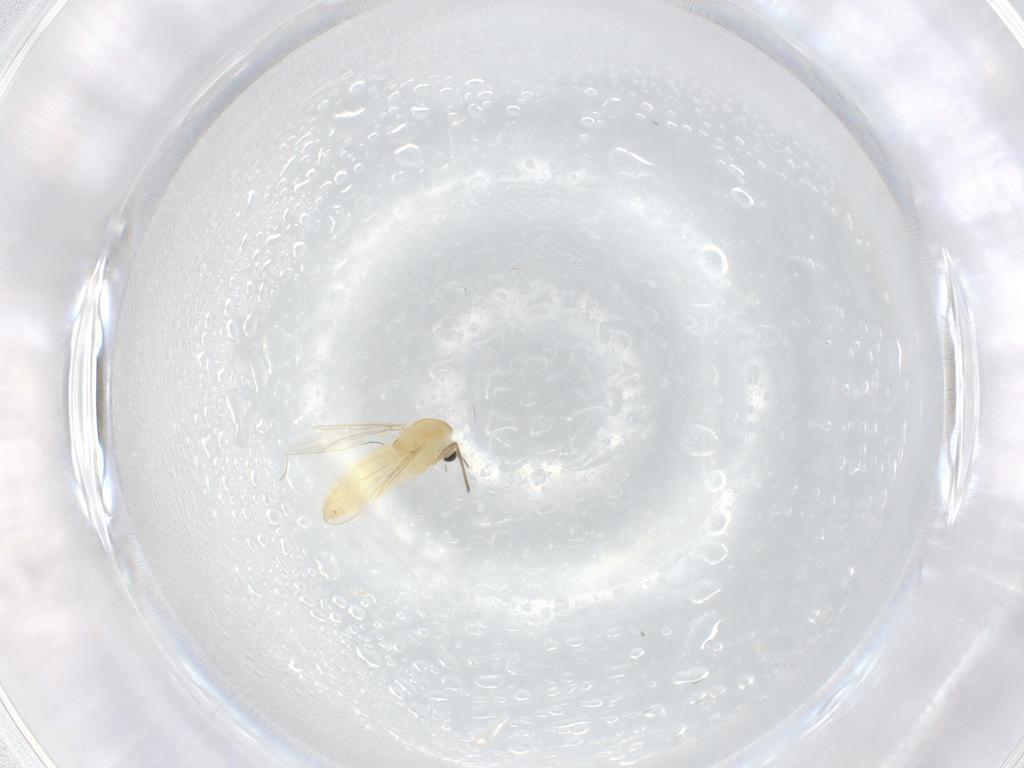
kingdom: Animalia
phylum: Arthropoda
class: Insecta
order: Diptera
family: Chironomidae
